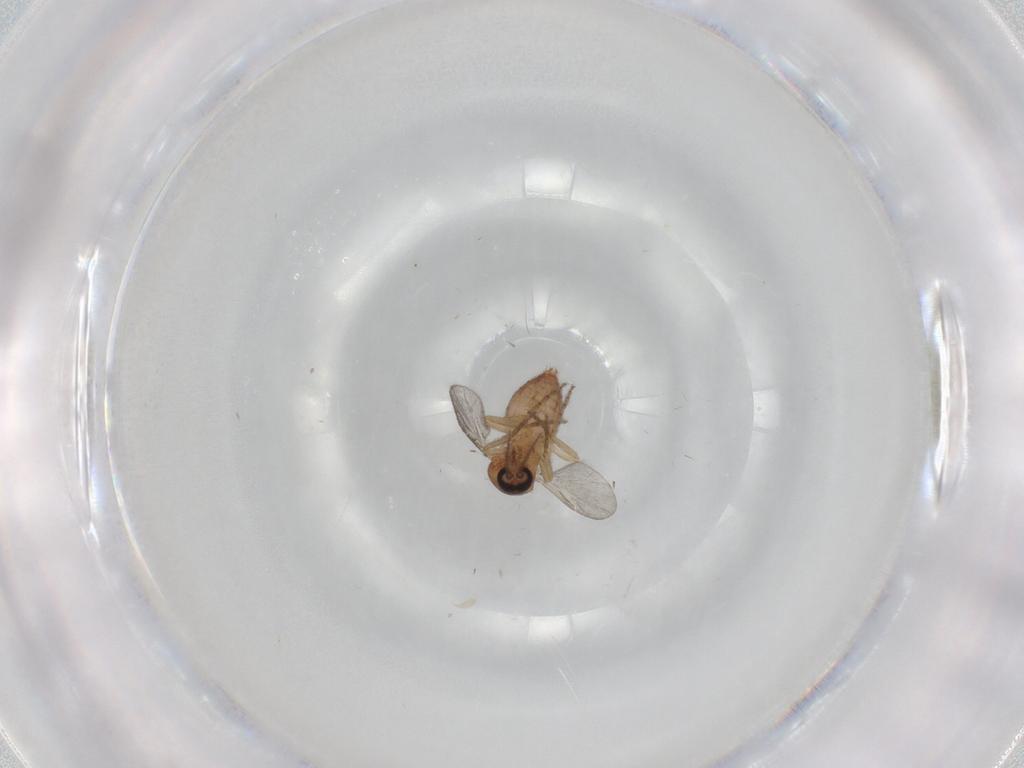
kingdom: Animalia
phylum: Arthropoda
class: Insecta
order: Diptera
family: Ceratopogonidae
